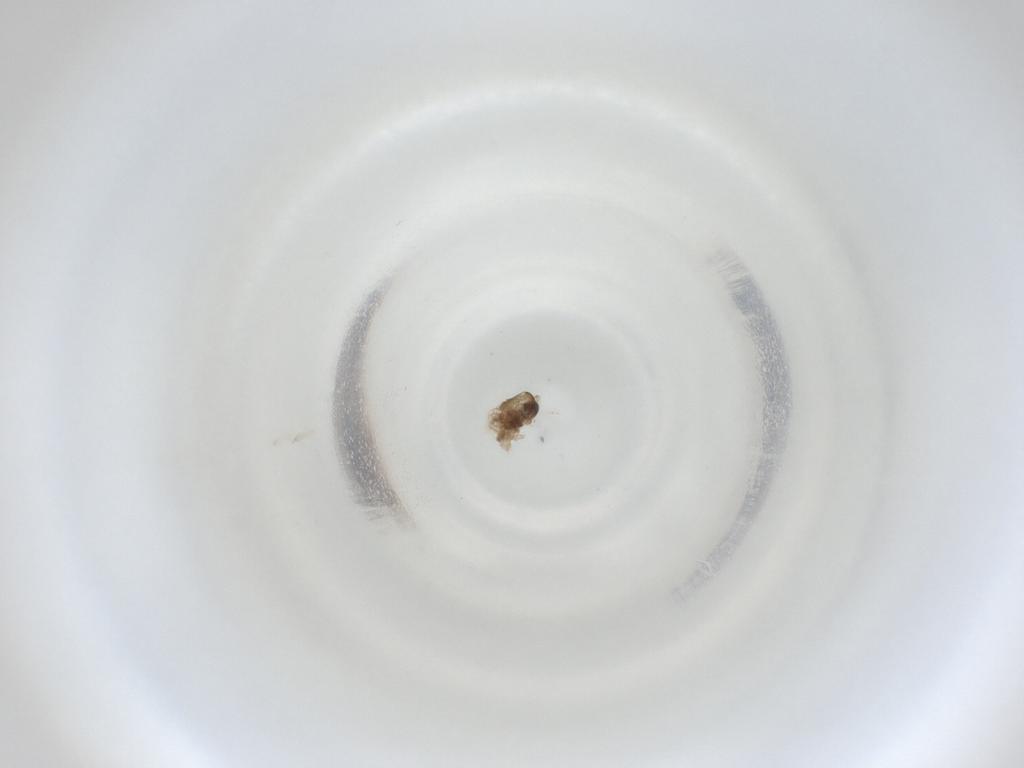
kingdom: Animalia
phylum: Arthropoda
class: Insecta
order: Diptera
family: Cecidomyiidae
